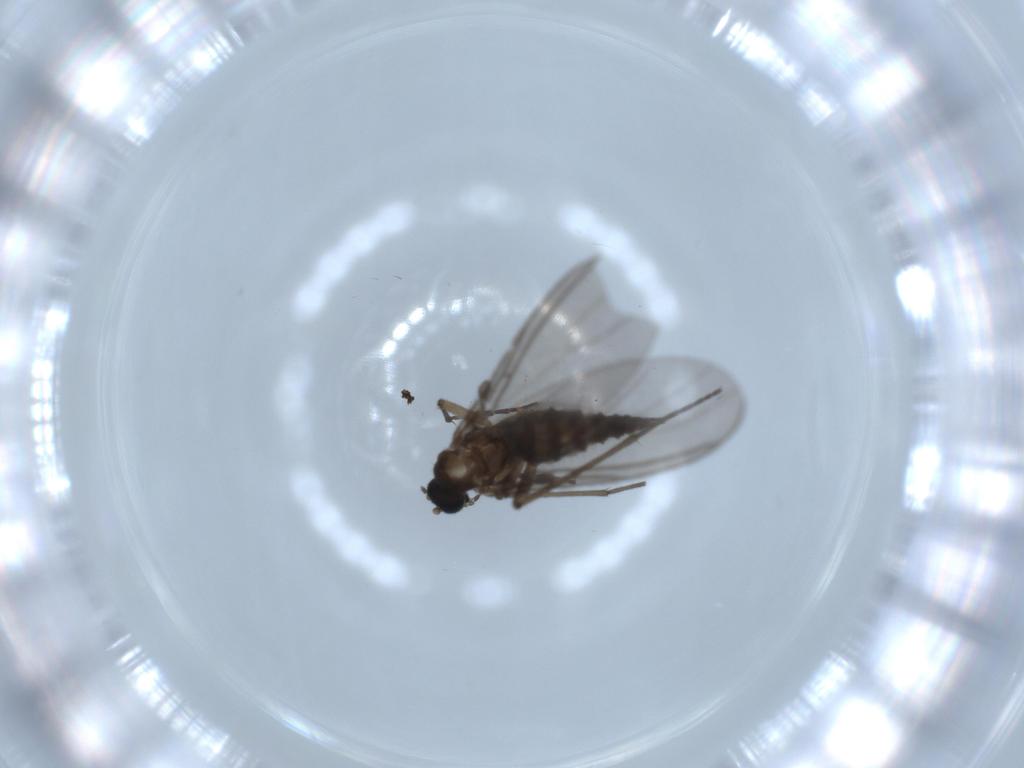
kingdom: Animalia
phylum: Arthropoda
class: Insecta
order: Diptera
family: Sciaridae
